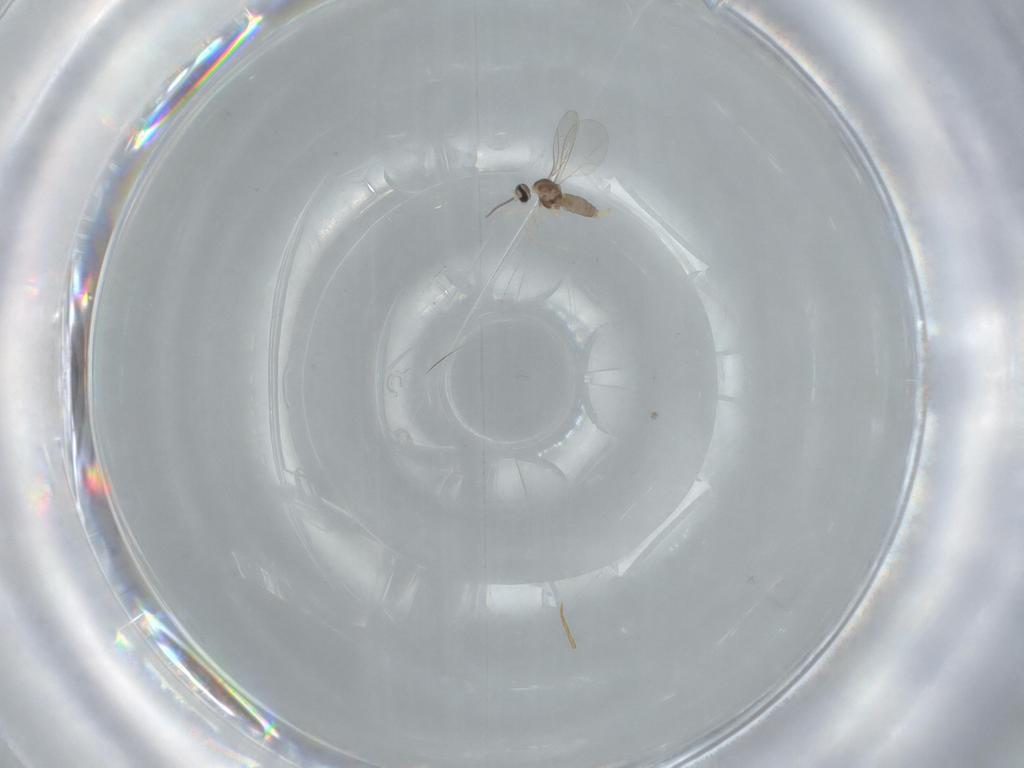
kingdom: Animalia
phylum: Arthropoda
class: Insecta
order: Diptera
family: Cecidomyiidae
